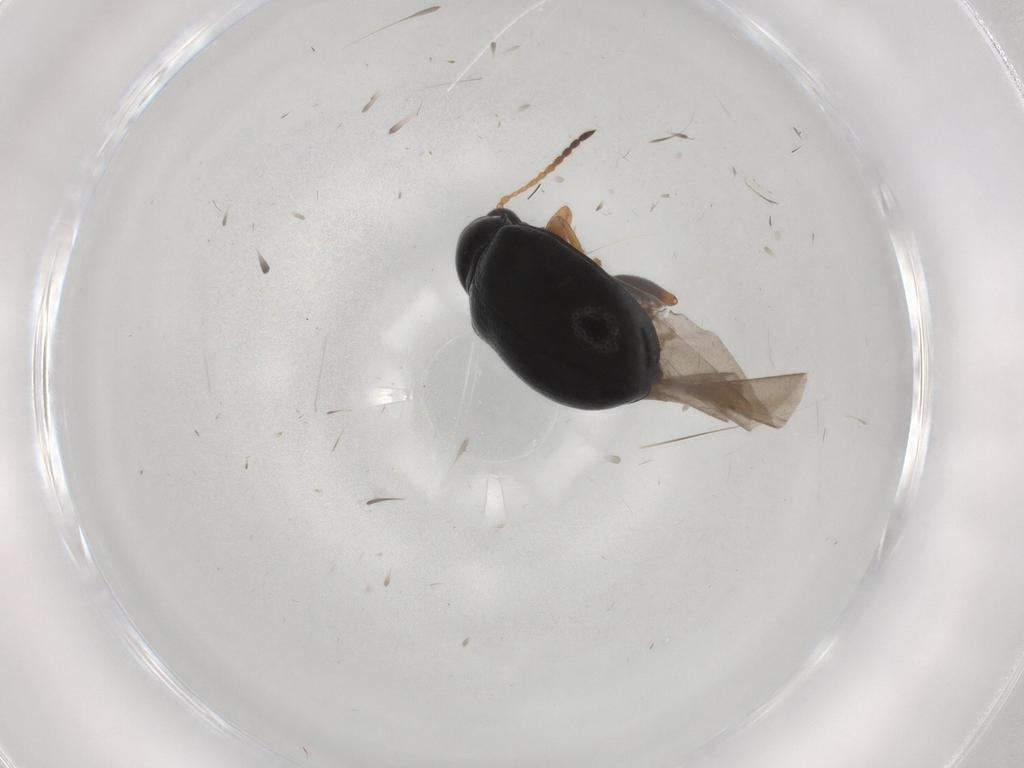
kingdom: Animalia
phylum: Arthropoda
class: Insecta
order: Coleoptera
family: Chrysomelidae
